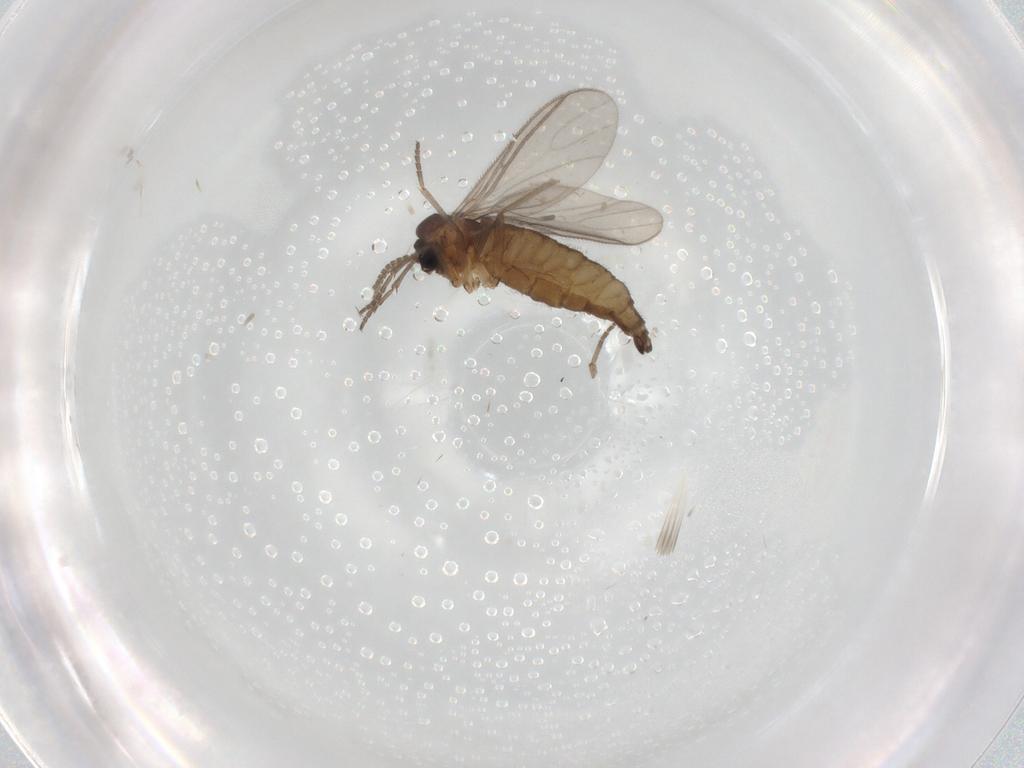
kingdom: Animalia
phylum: Arthropoda
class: Insecta
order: Diptera
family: Sciaridae
